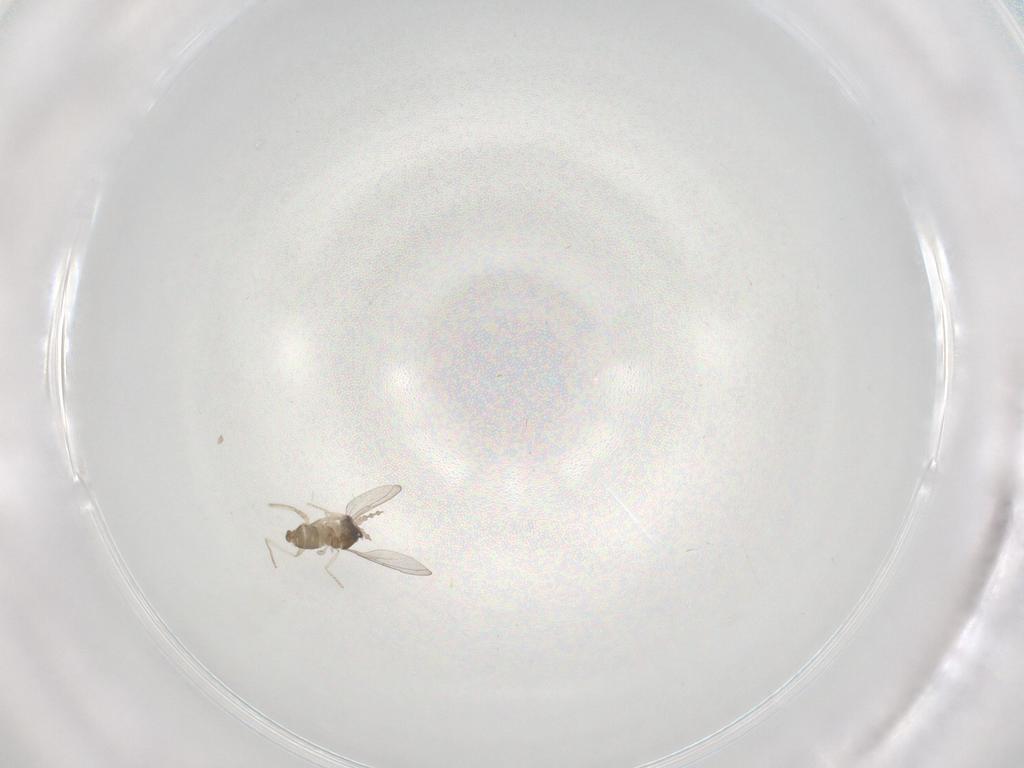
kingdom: Animalia
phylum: Arthropoda
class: Insecta
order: Diptera
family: Cecidomyiidae
